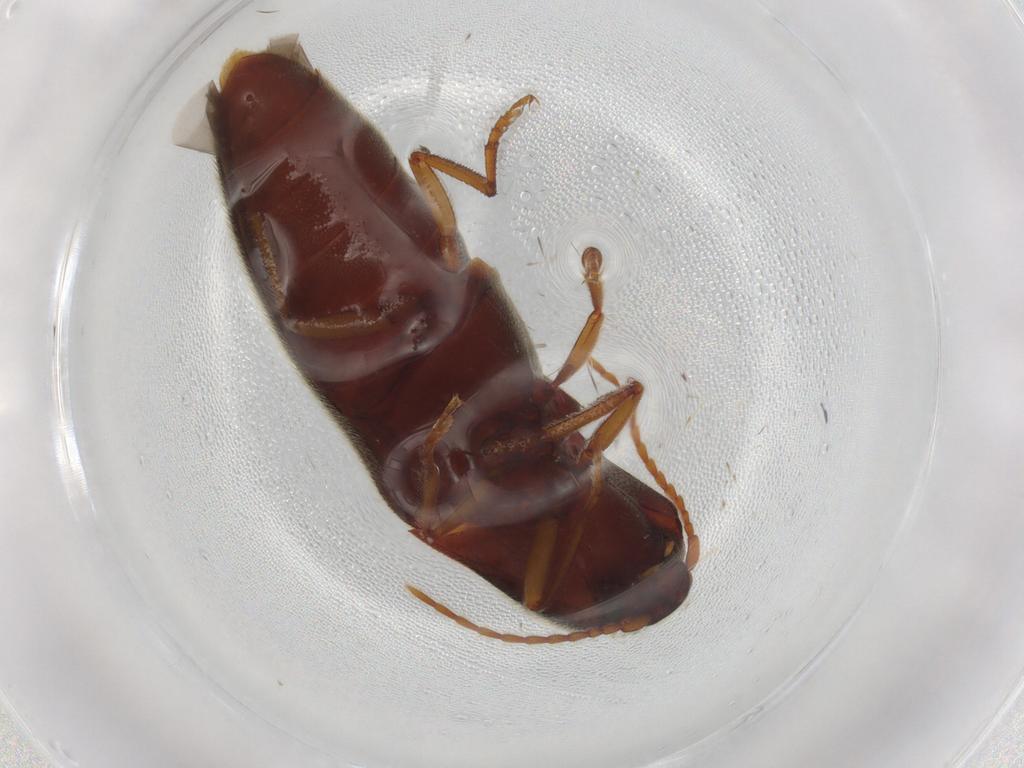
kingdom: Animalia
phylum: Arthropoda
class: Insecta
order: Coleoptera
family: Elateridae
